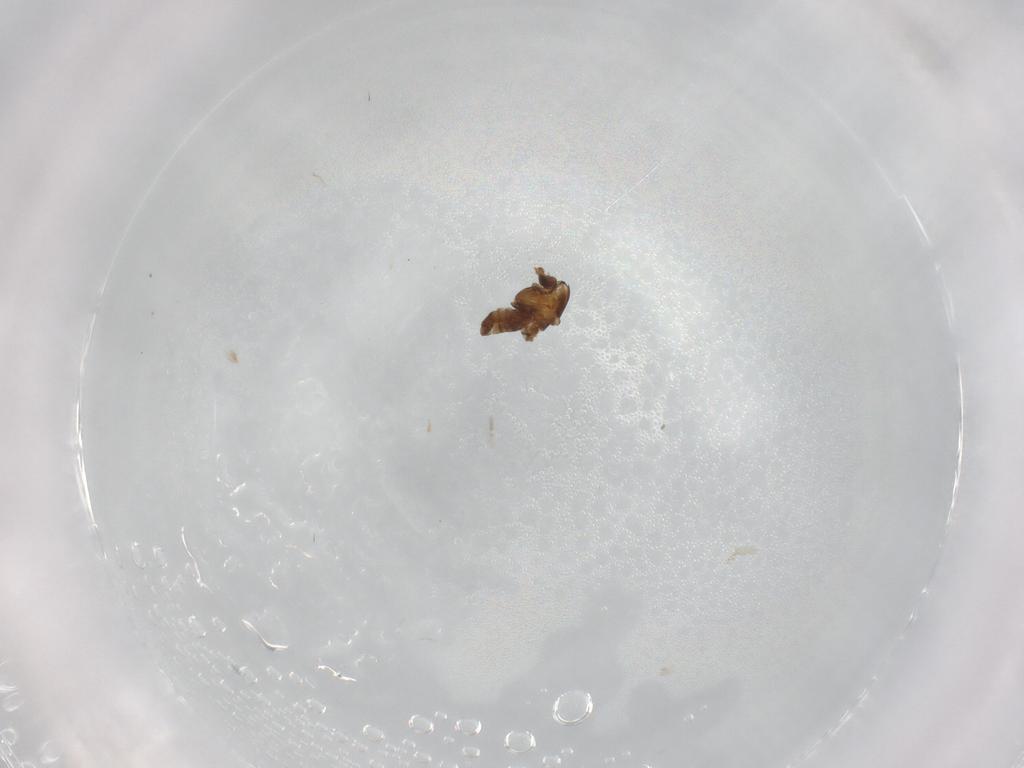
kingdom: Animalia
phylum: Arthropoda
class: Insecta
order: Diptera
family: Chironomidae
